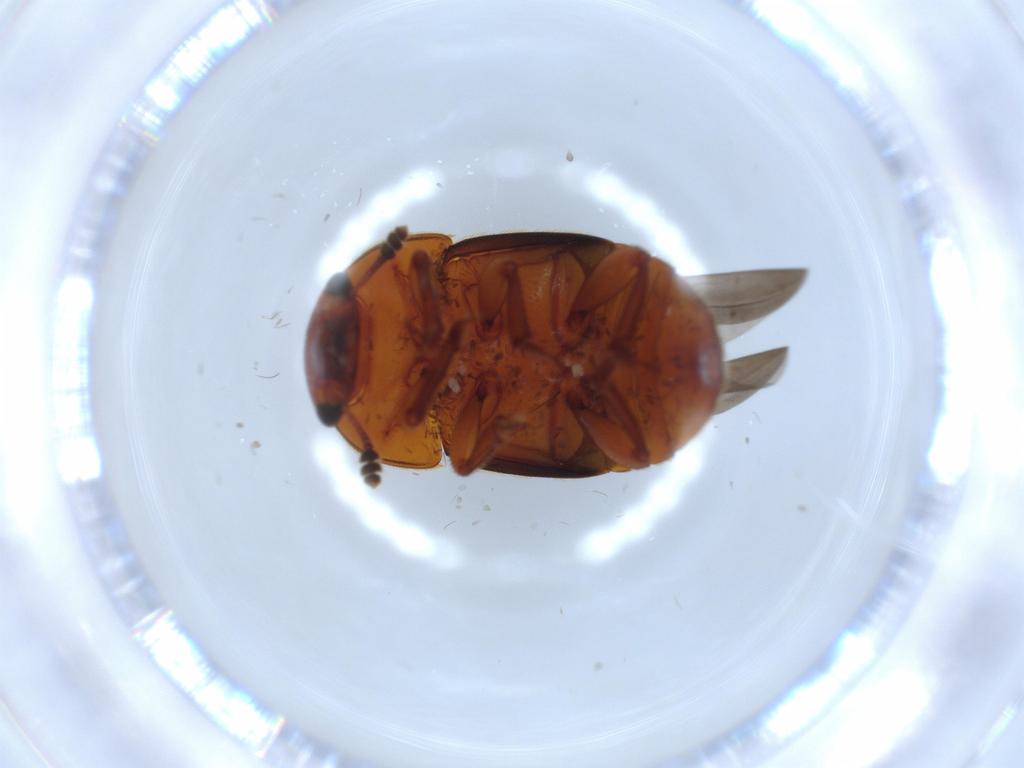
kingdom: Animalia
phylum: Arthropoda
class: Insecta
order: Coleoptera
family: Nitidulidae
